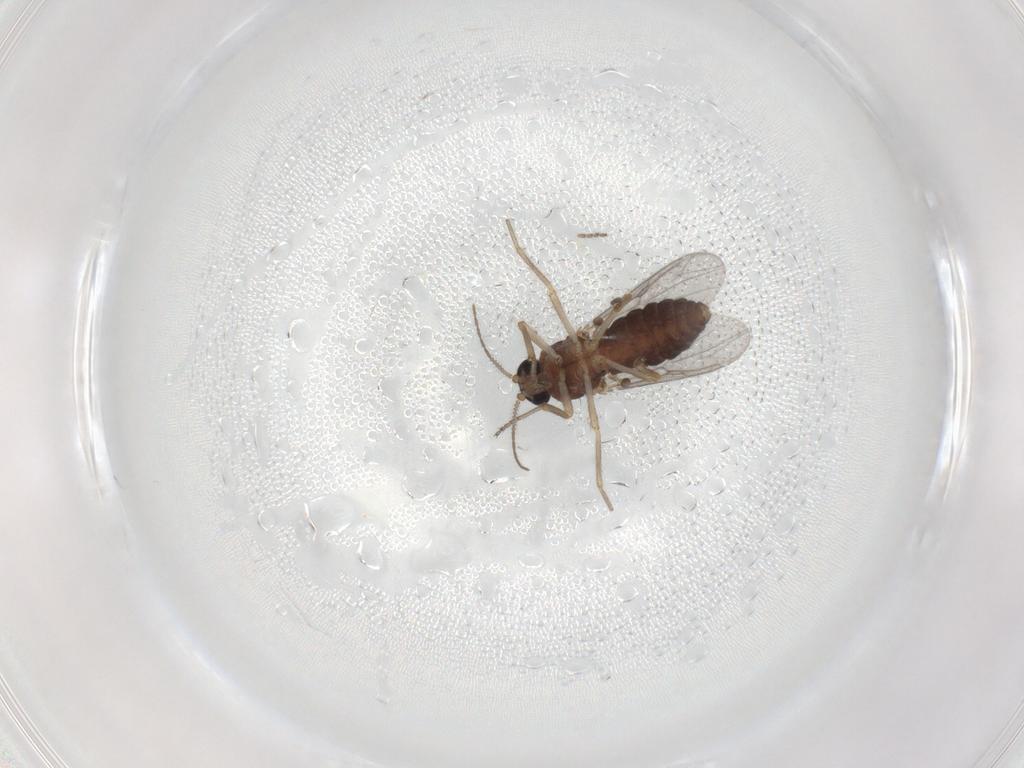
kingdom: Animalia
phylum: Arthropoda
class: Insecta
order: Diptera
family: Ceratopogonidae
